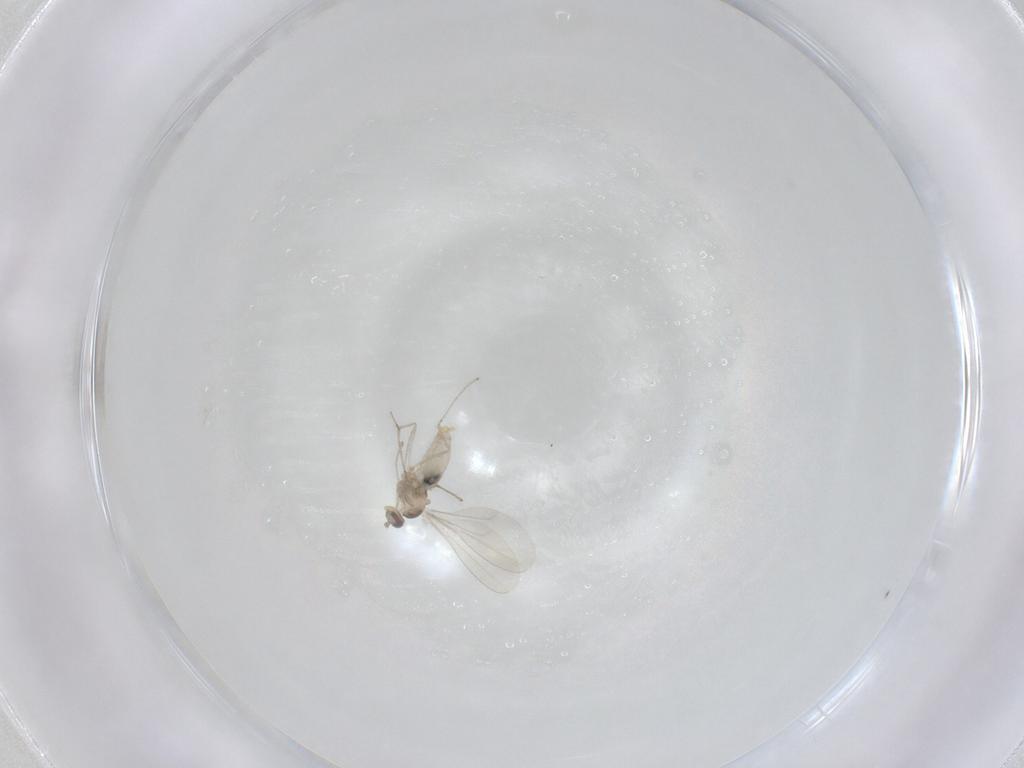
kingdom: Animalia
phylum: Arthropoda
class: Insecta
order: Diptera
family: Cecidomyiidae
